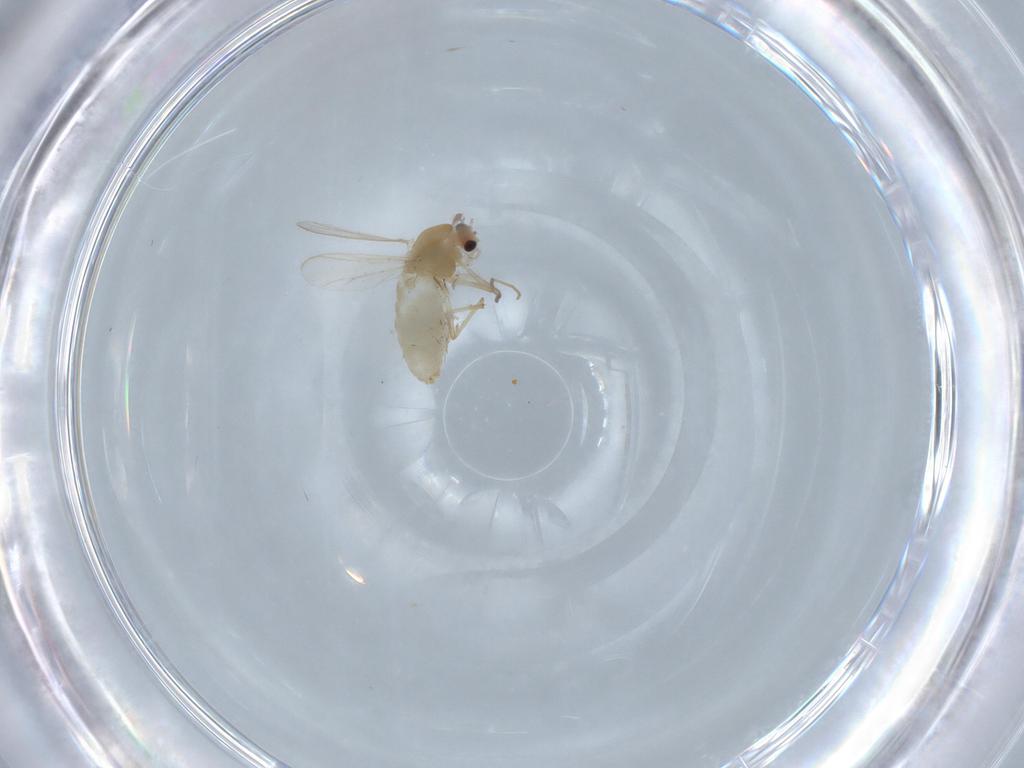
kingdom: Animalia
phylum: Arthropoda
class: Insecta
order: Diptera
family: Chironomidae
